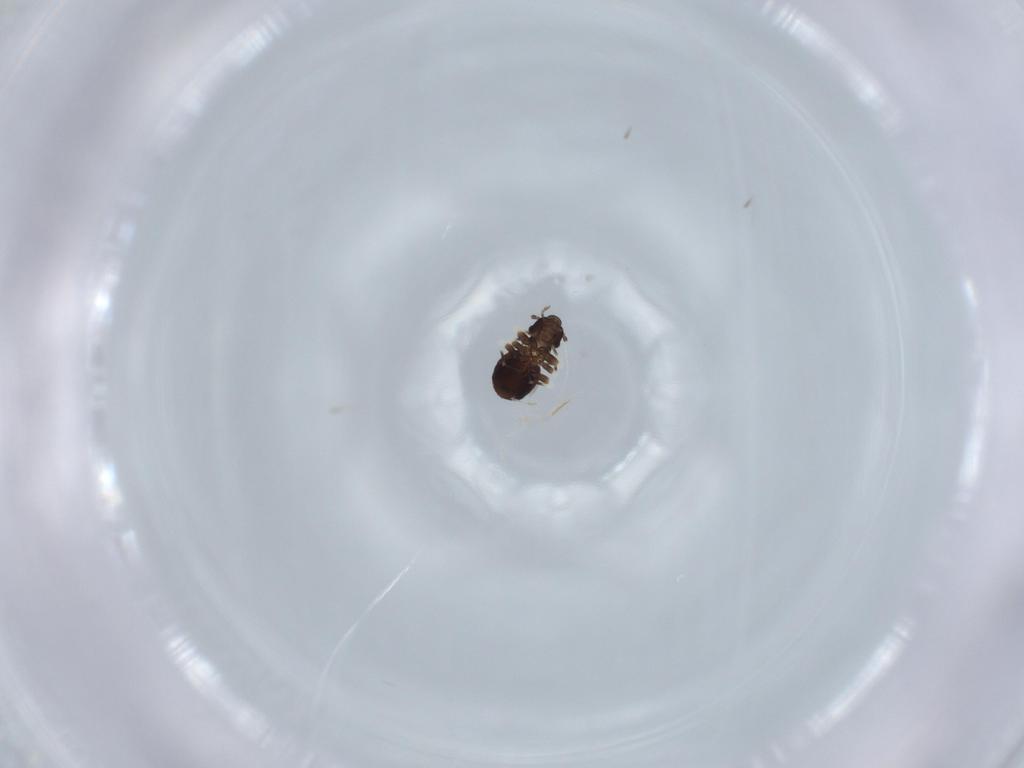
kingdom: Animalia
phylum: Arthropoda
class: Insecta
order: Psocodea
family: Lepidopsocidae
